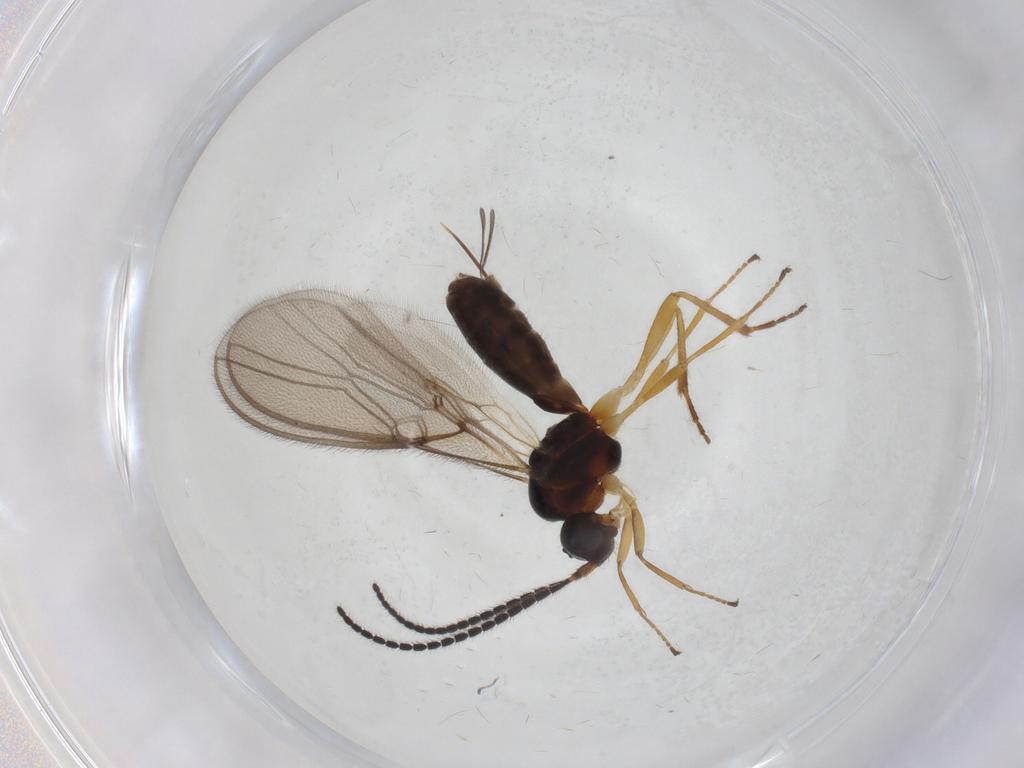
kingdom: Animalia
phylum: Arthropoda
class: Insecta
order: Hymenoptera
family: Braconidae
